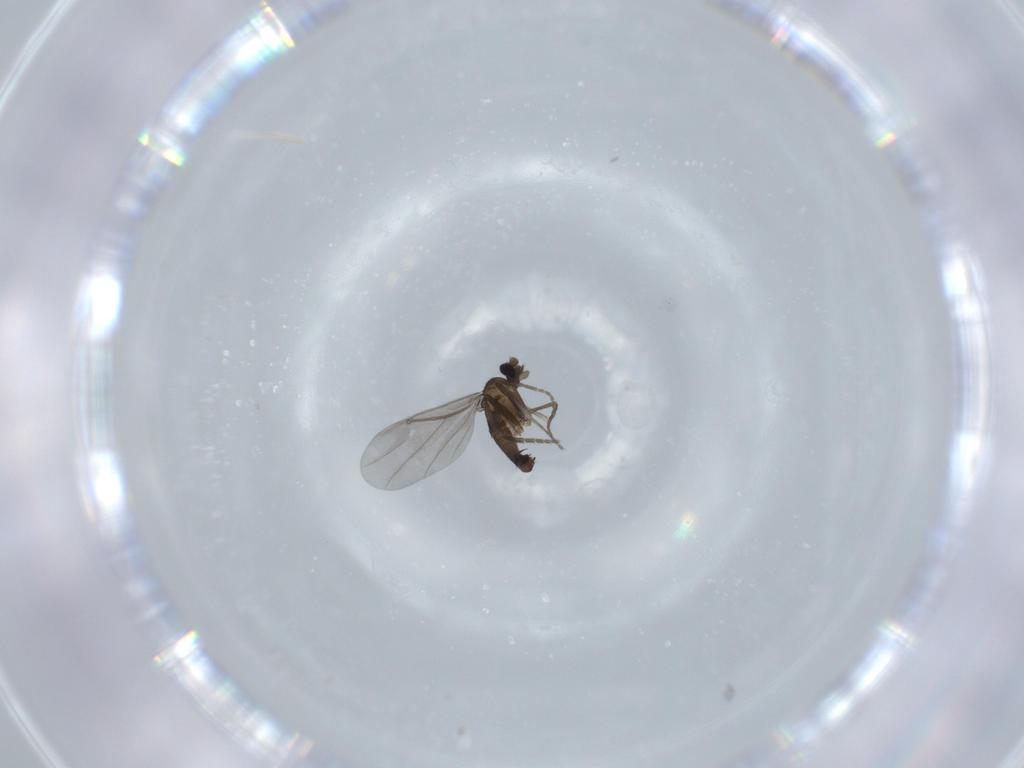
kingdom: Animalia
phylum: Arthropoda
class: Insecta
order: Diptera
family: Phoridae
